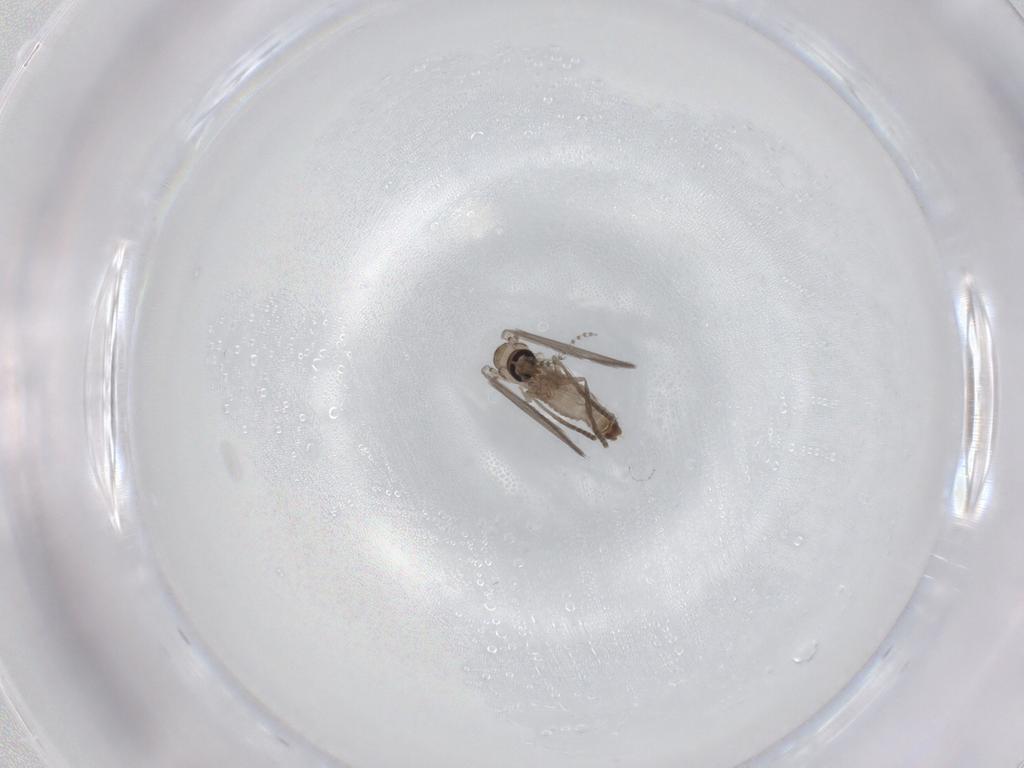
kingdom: Animalia
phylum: Arthropoda
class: Insecta
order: Diptera
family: Psychodidae
